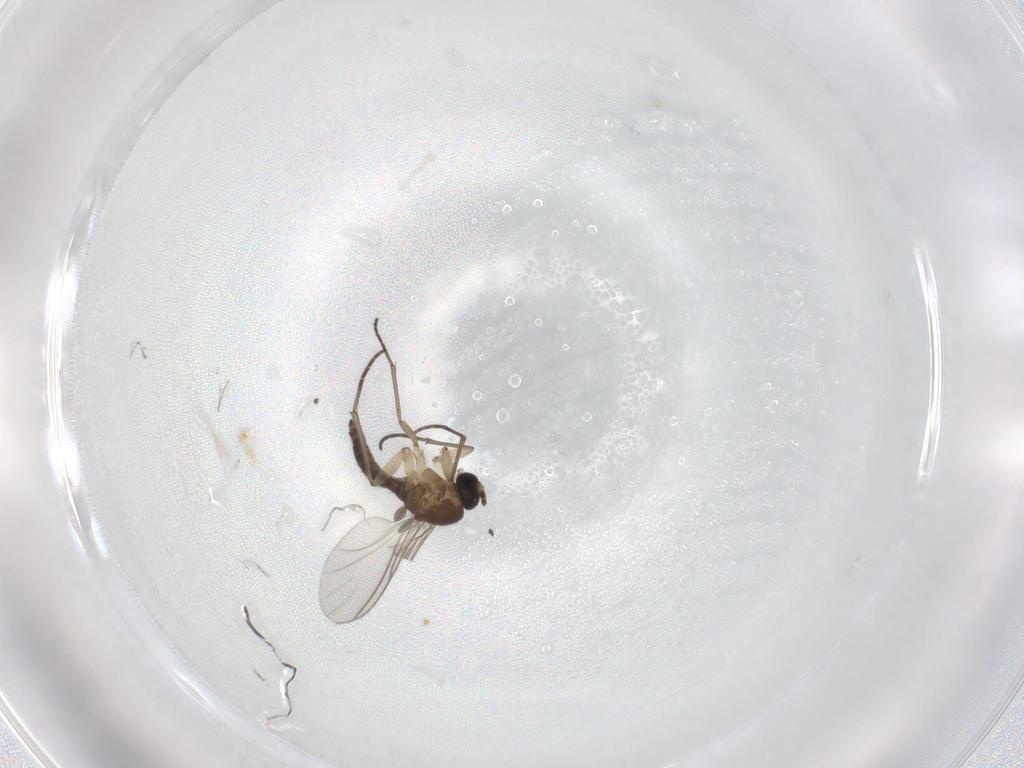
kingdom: Animalia
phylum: Arthropoda
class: Insecta
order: Diptera
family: Sciaridae
